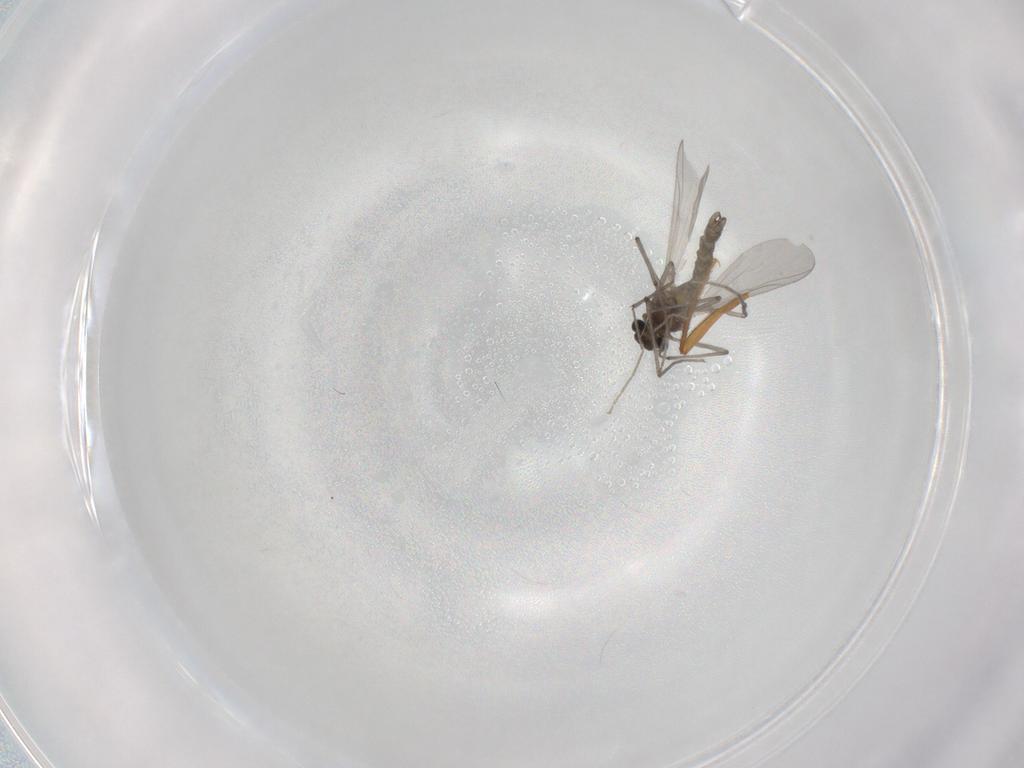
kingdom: Animalia
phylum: Arthropoda
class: Insecta
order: Diptera
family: Chironomidae
